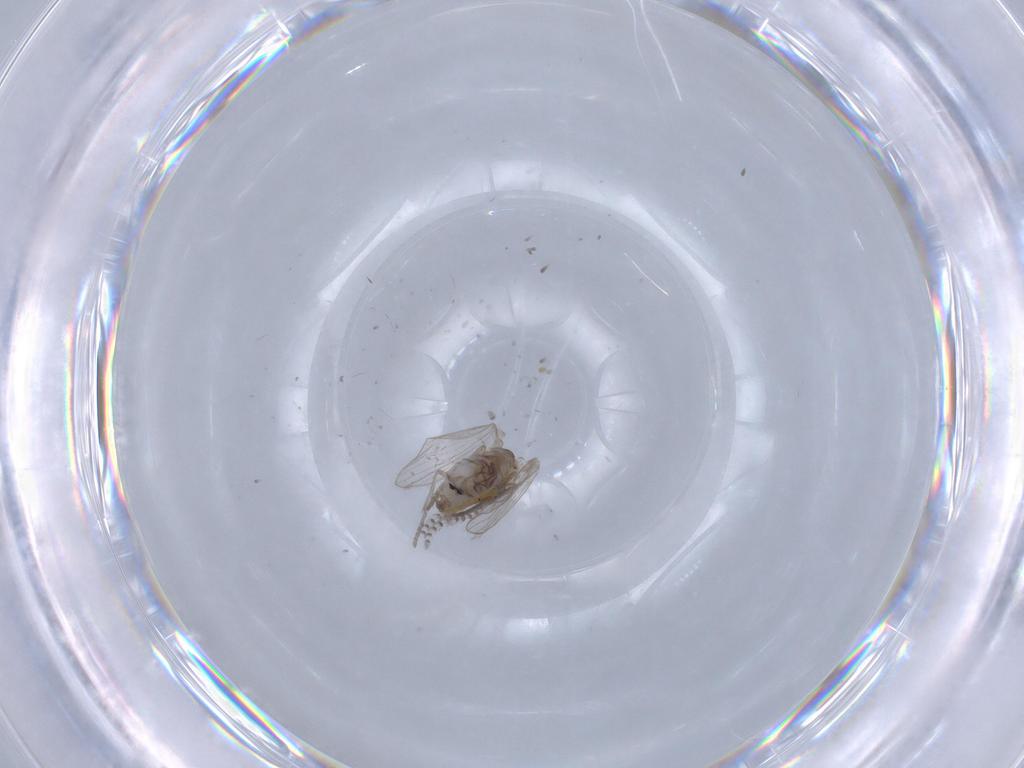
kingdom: Animalia
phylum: Arthropoda
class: Insecta
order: Diptera
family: Psychodidae
